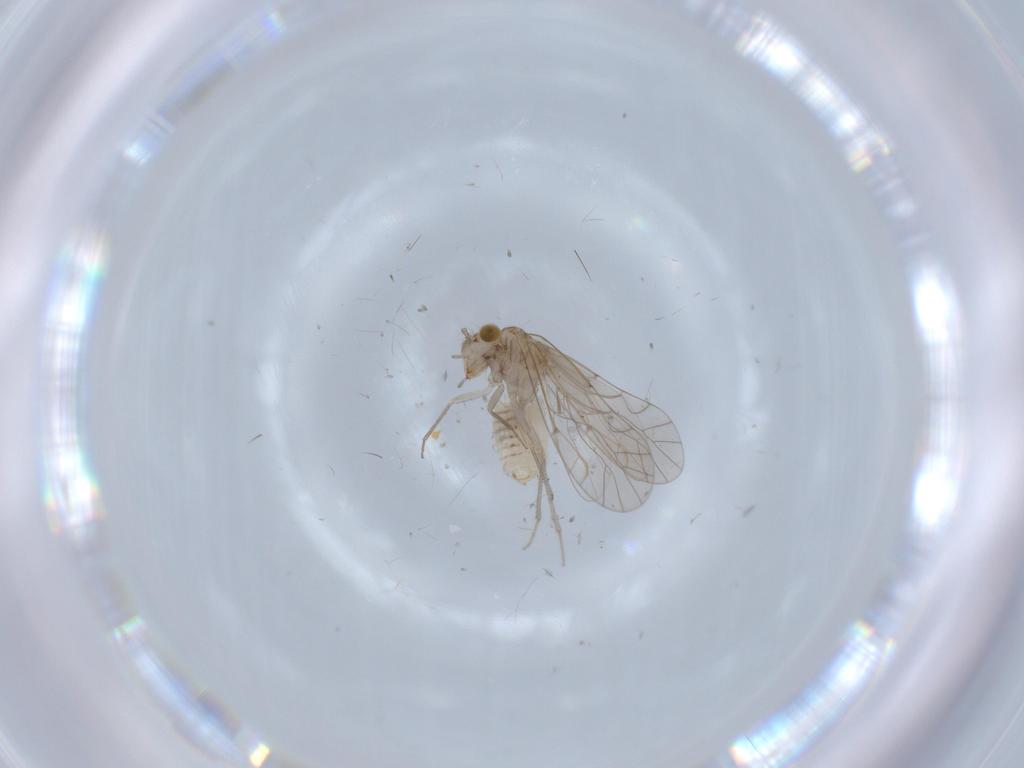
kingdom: Animalia
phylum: Arthropoda
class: Insecta
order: Psocodea
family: Lachesillidae
